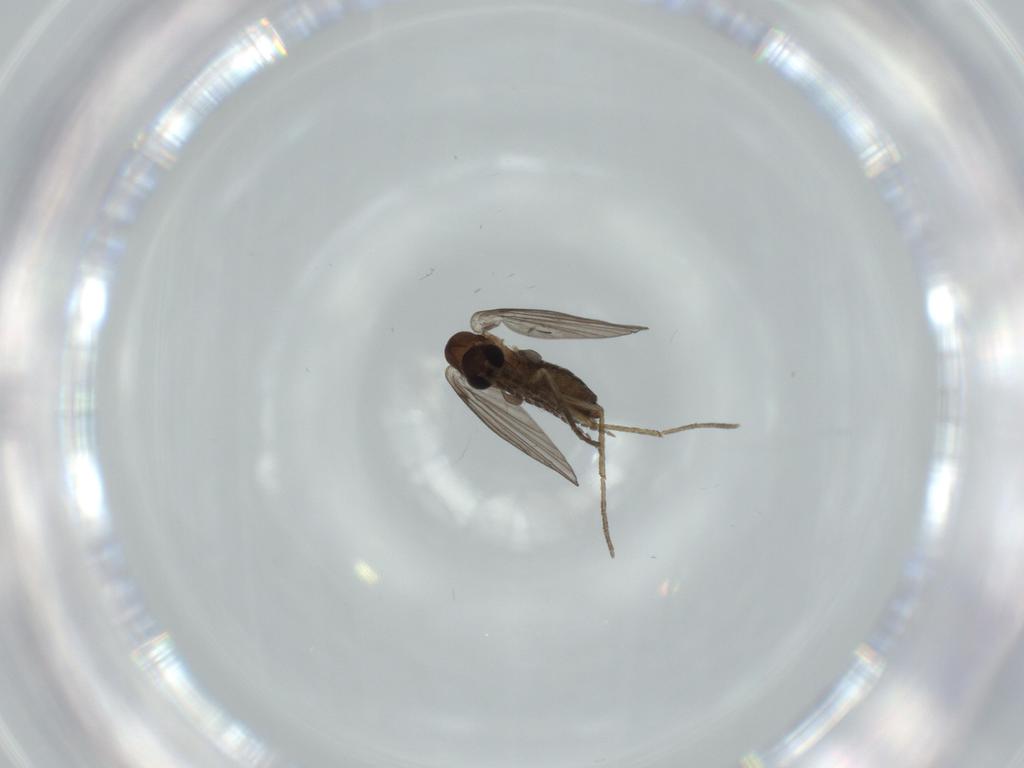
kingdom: Animalia
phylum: Arthropoda
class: Insecta
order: Diptera
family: Psychodidae
